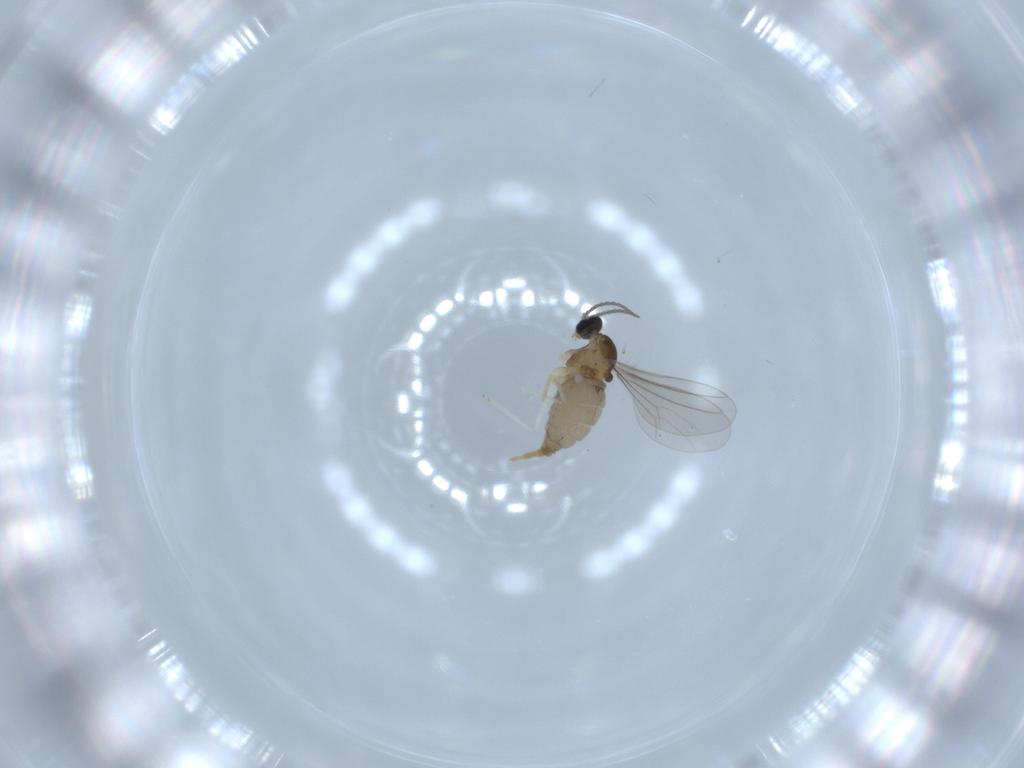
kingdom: Animalia
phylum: Arthropoda
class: Insecta
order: Diptera
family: Cecidomyiidae
